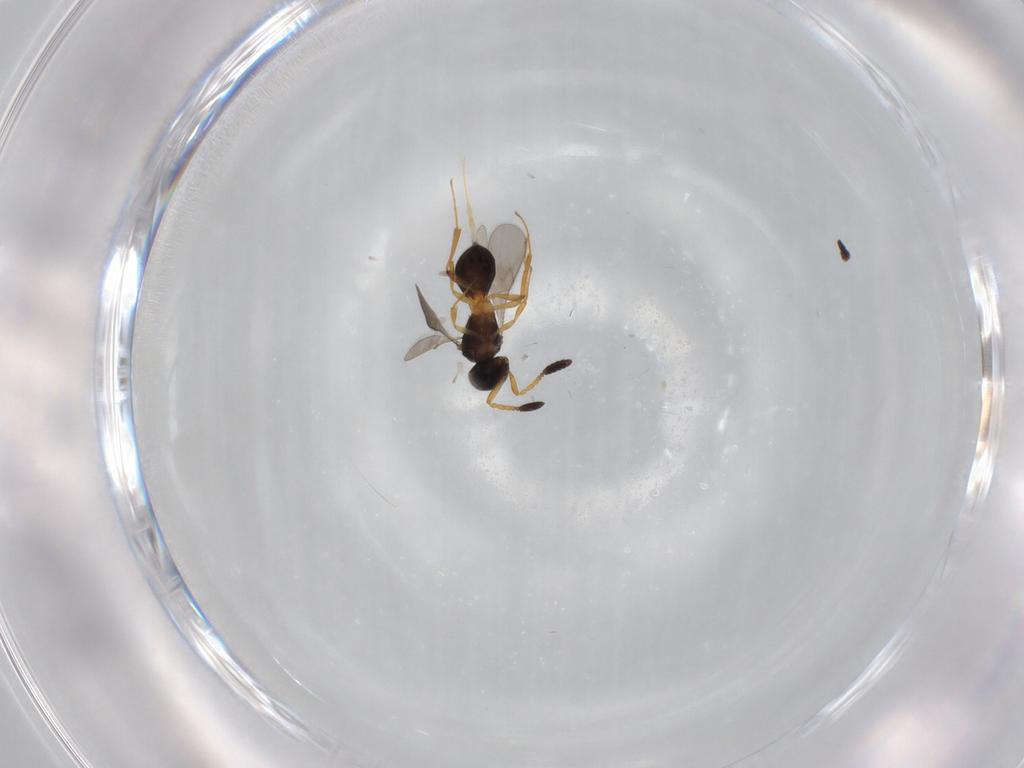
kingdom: Animalia
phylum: Arthropoda
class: Insecta
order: Hymenoptera
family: Scelionidae
